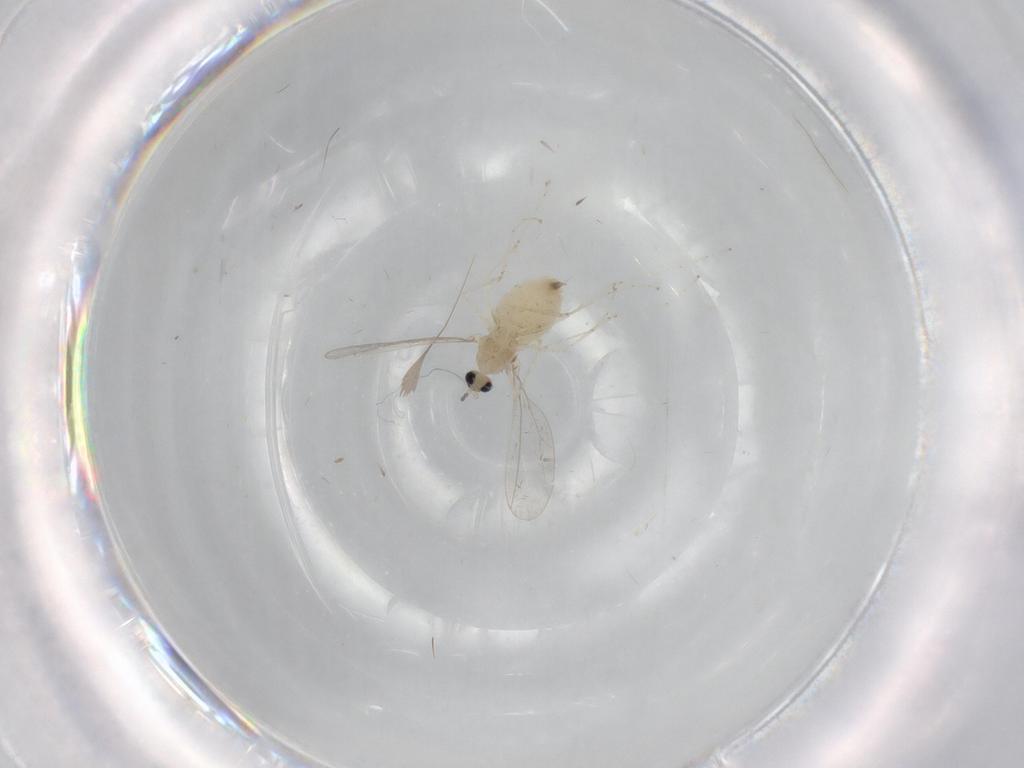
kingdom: Animalia
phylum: Arthropoda
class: Insecta
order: Diptera
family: Cecidomyiidae
